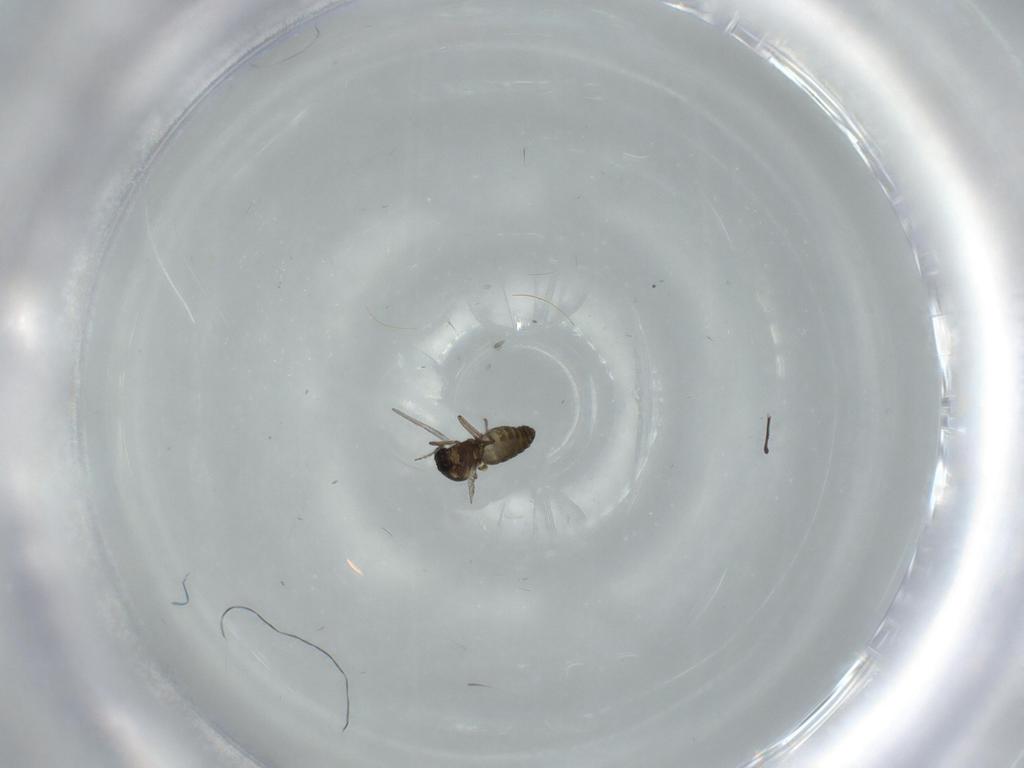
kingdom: Animalia
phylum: Arthropoda
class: Insecta
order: Diptera
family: Ceratopogonidae
